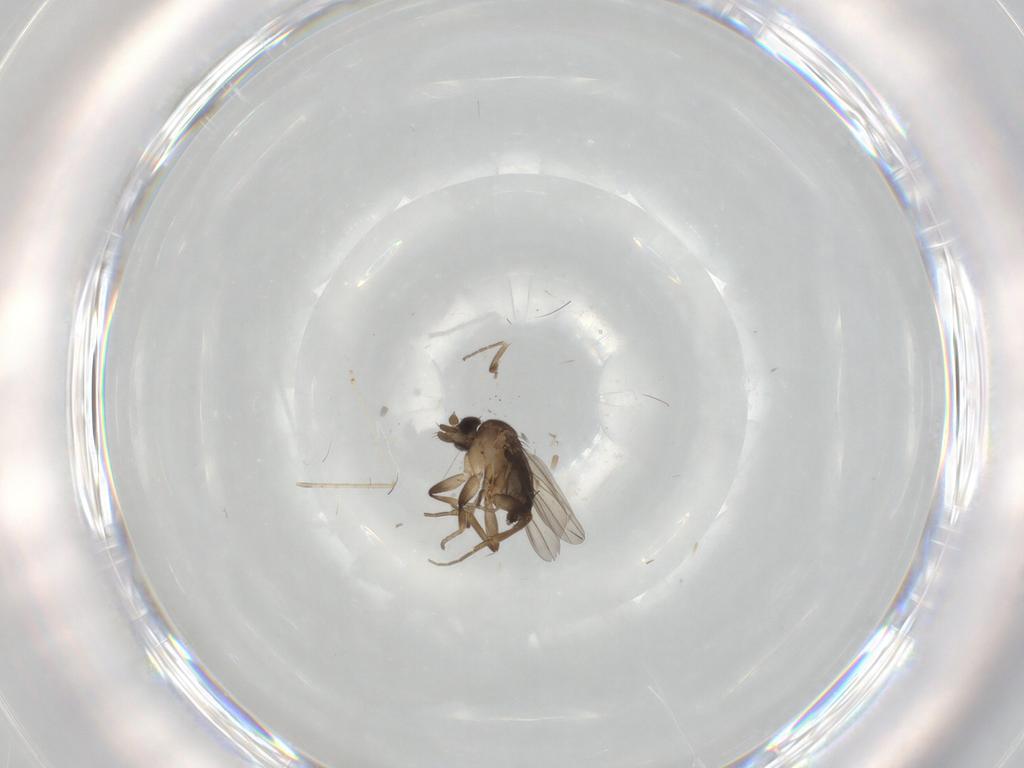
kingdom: Animalia
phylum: Arthropoda
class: Insecta
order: Diptera
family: Cecidomyiidae
